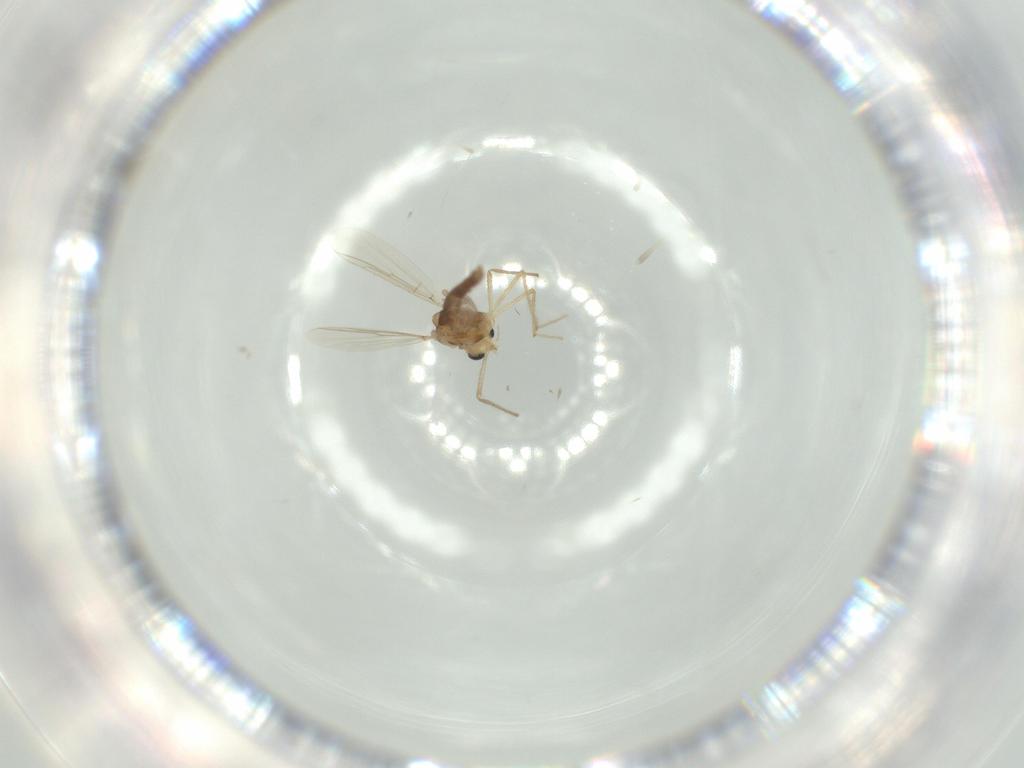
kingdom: Animalia
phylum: Arthropoda
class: Insecta
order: Diptera
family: Chironomidae
